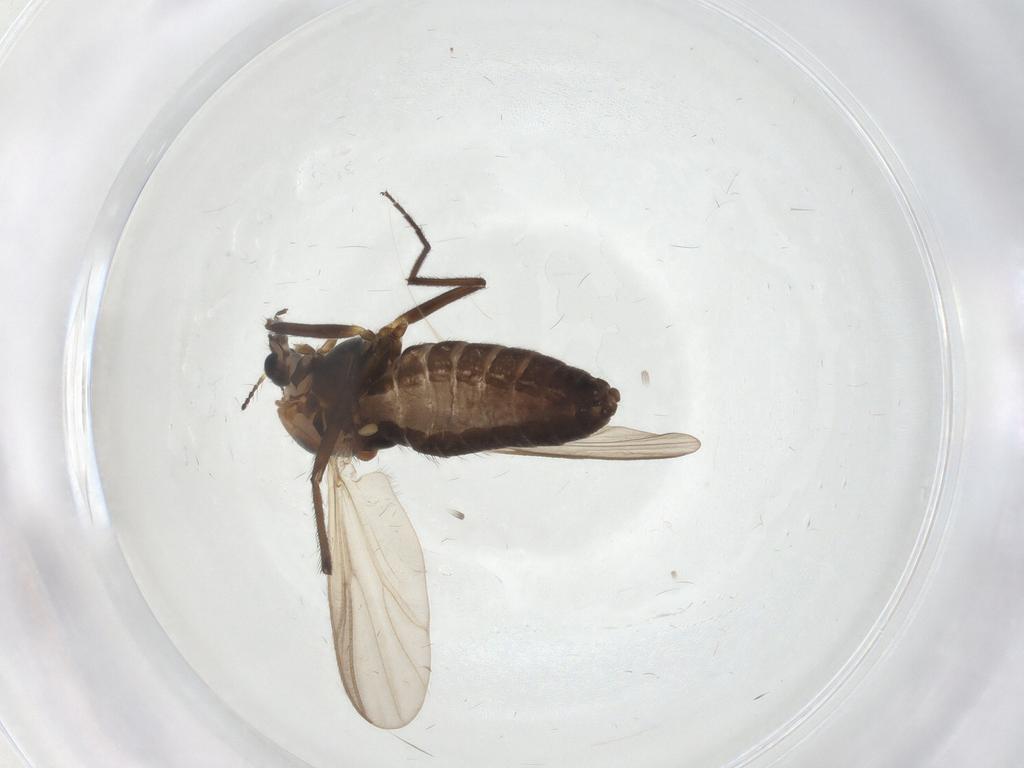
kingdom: Animalia
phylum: Arthropoda
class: Insecta
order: Diptera
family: Chironomidae
